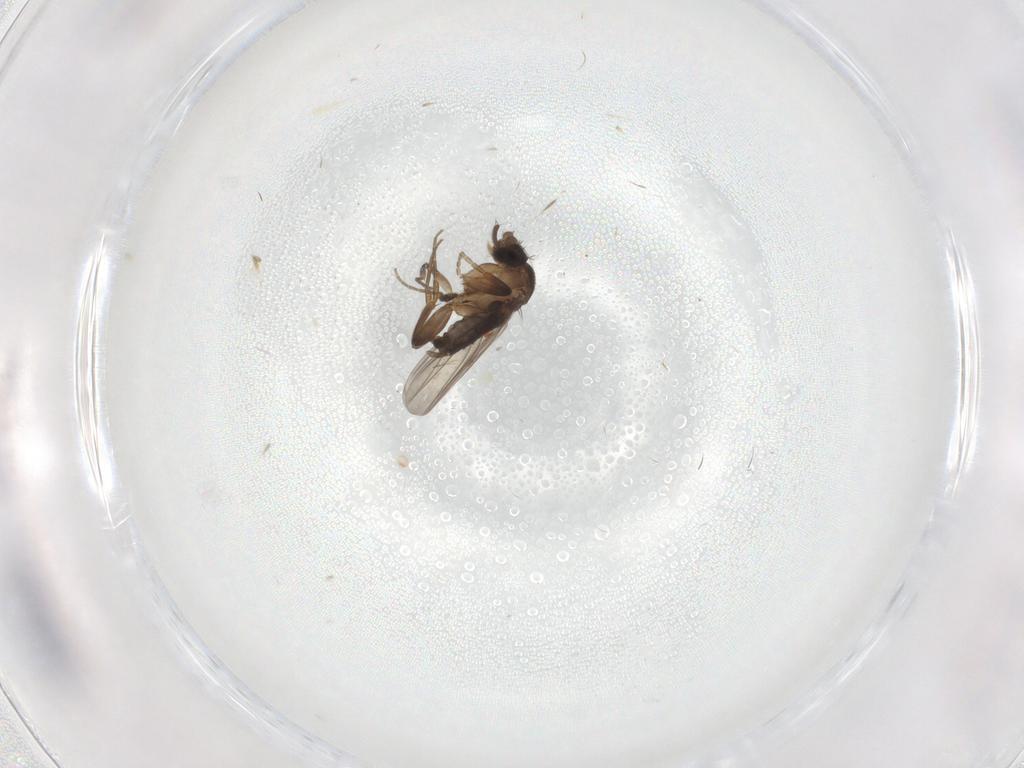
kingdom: Animalia
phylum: Arthropoda
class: Insecta
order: Diptera
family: Phoridae
